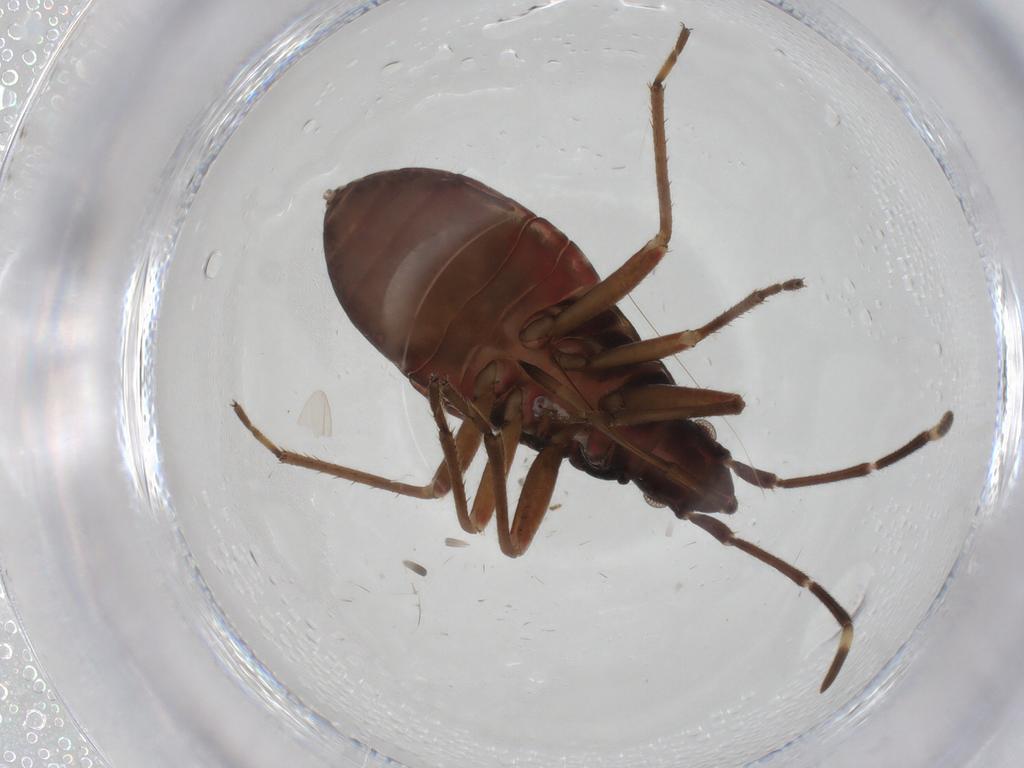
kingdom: Animalia
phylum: Arthropoda
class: Insecta
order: Hemiptera
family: Rhyparochromidae
